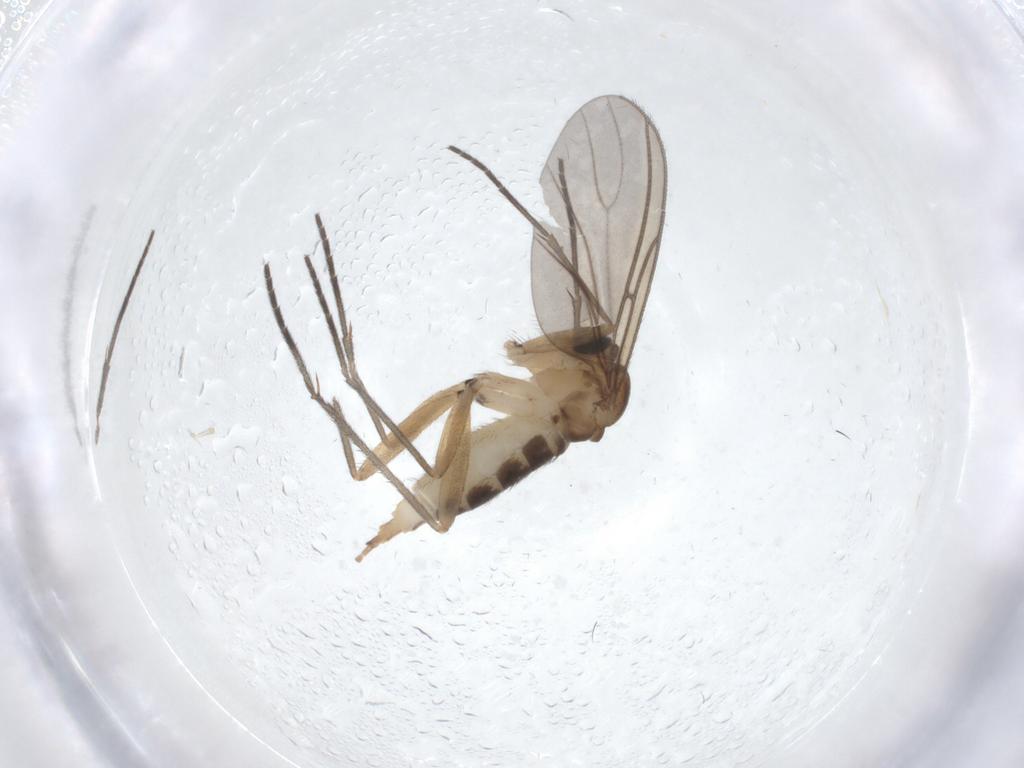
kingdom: Animalia
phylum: Arthropoda
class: Insecta
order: Diptera
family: Sciaridae
